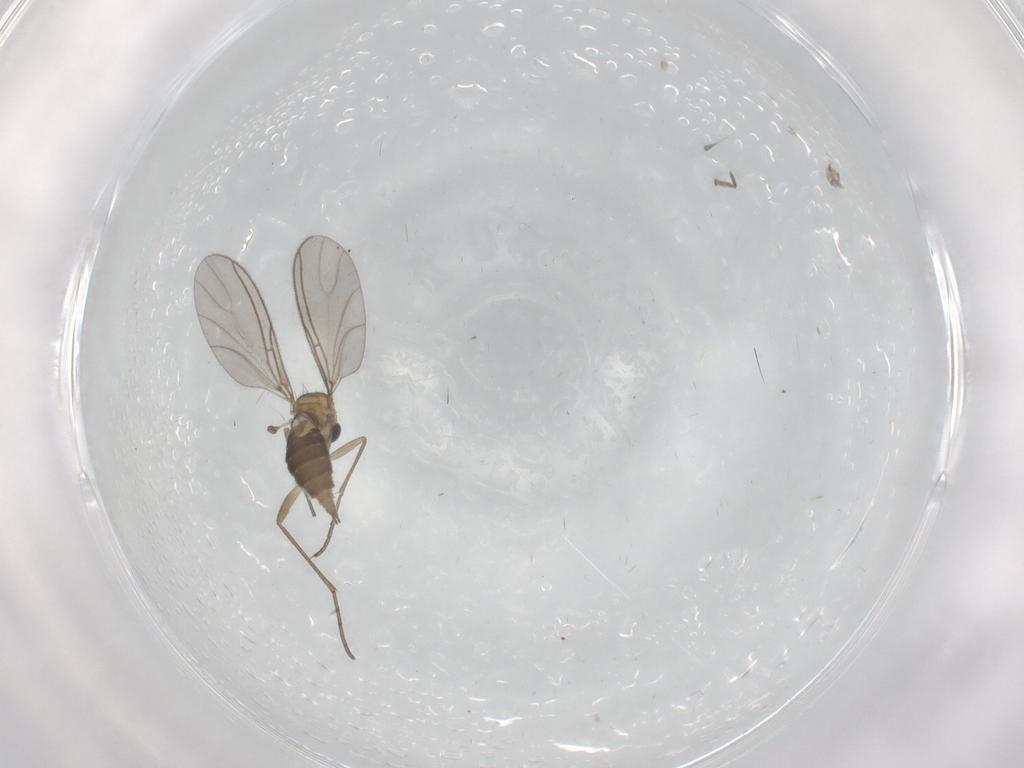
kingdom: Animalia
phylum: Arthropoda
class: Insecta
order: Diptera
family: Sciaridae
